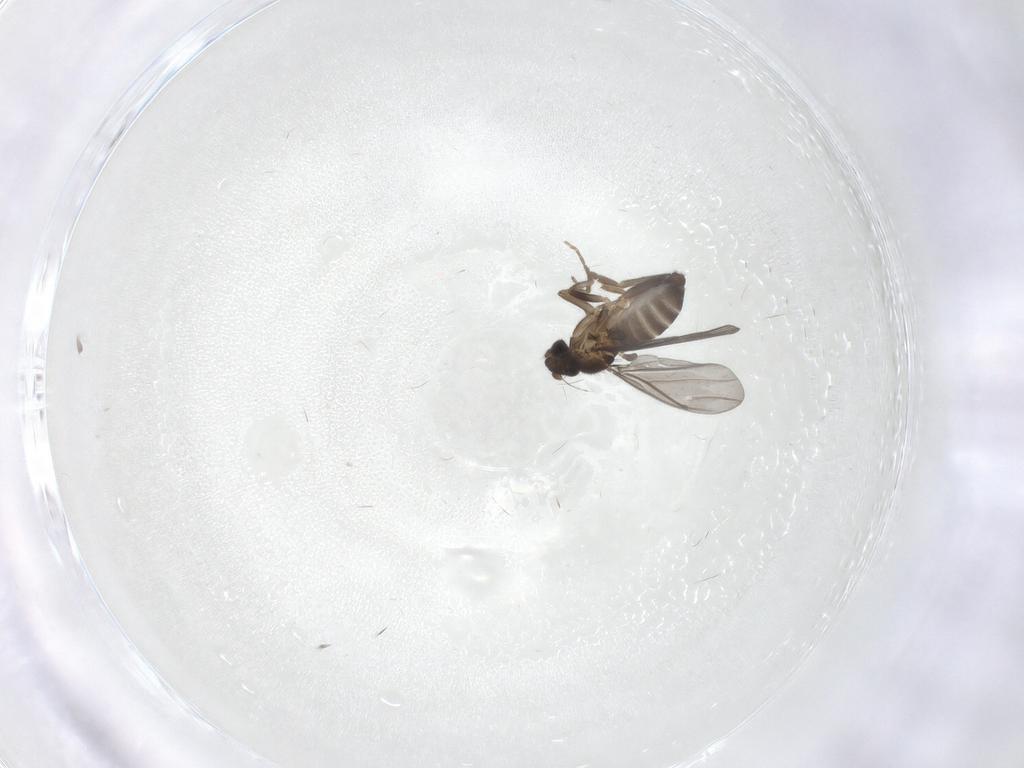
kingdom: Animalia
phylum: Arthropoda
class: Insecta
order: Diptera
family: Phoridae
